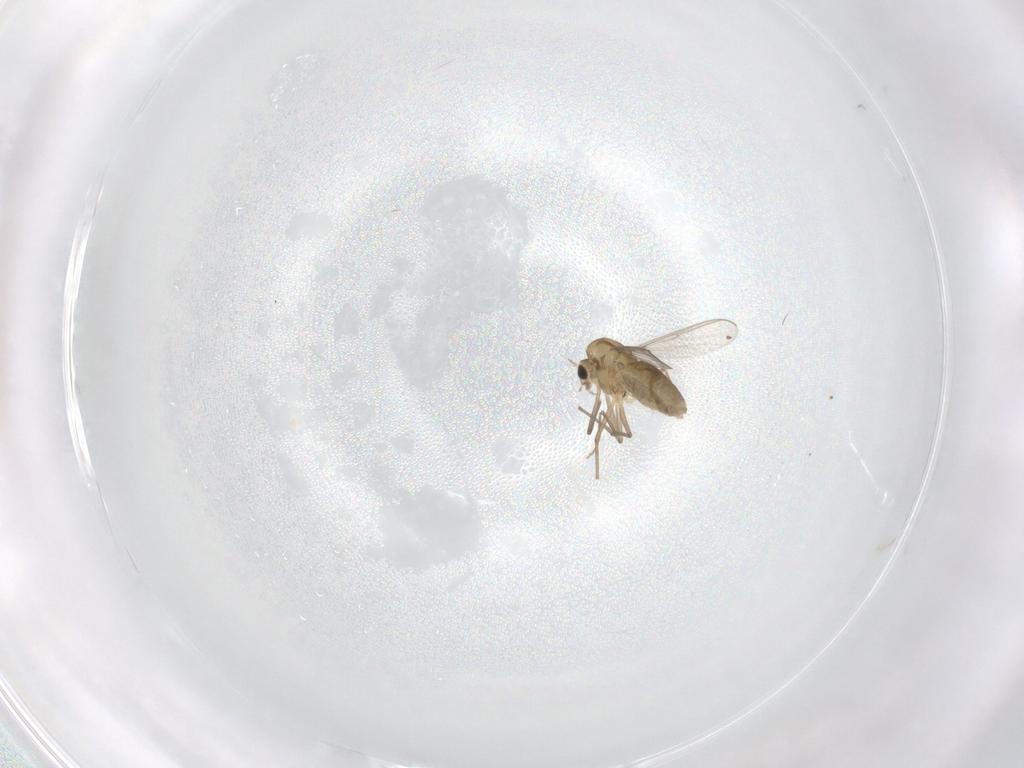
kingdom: Animalia
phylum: Arthropoda
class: Insecta
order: Diptera
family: Chironomidae
